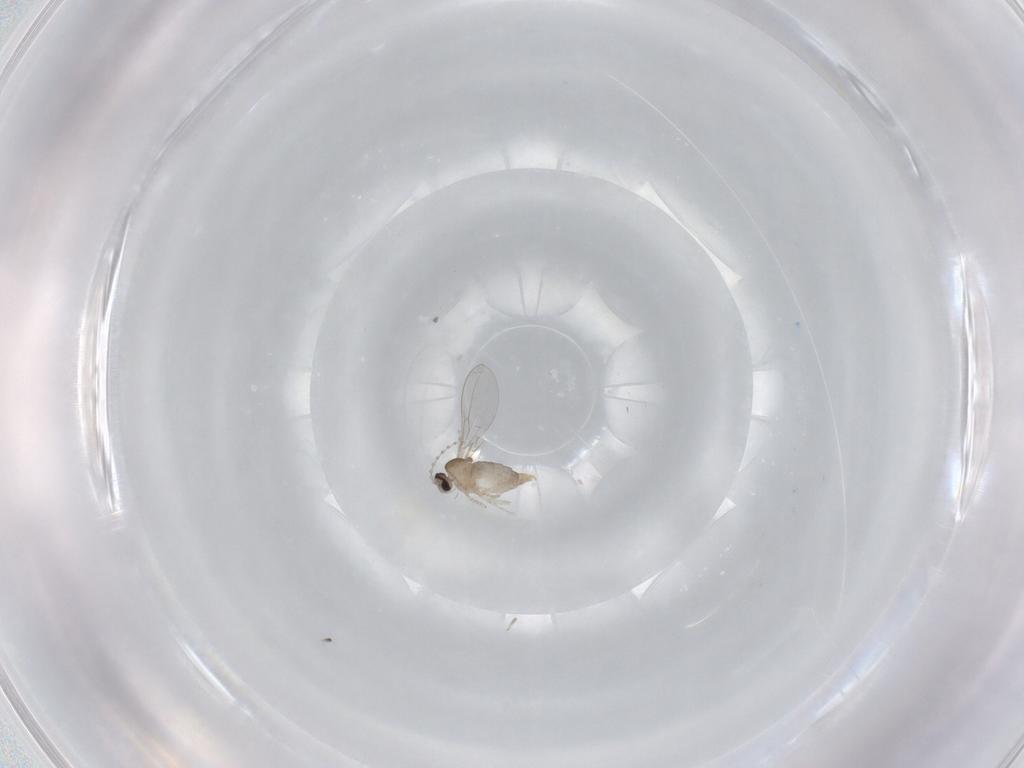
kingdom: Animalia
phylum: Arthropoda
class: Insecta
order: Diptera
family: Cecidomyiidae
